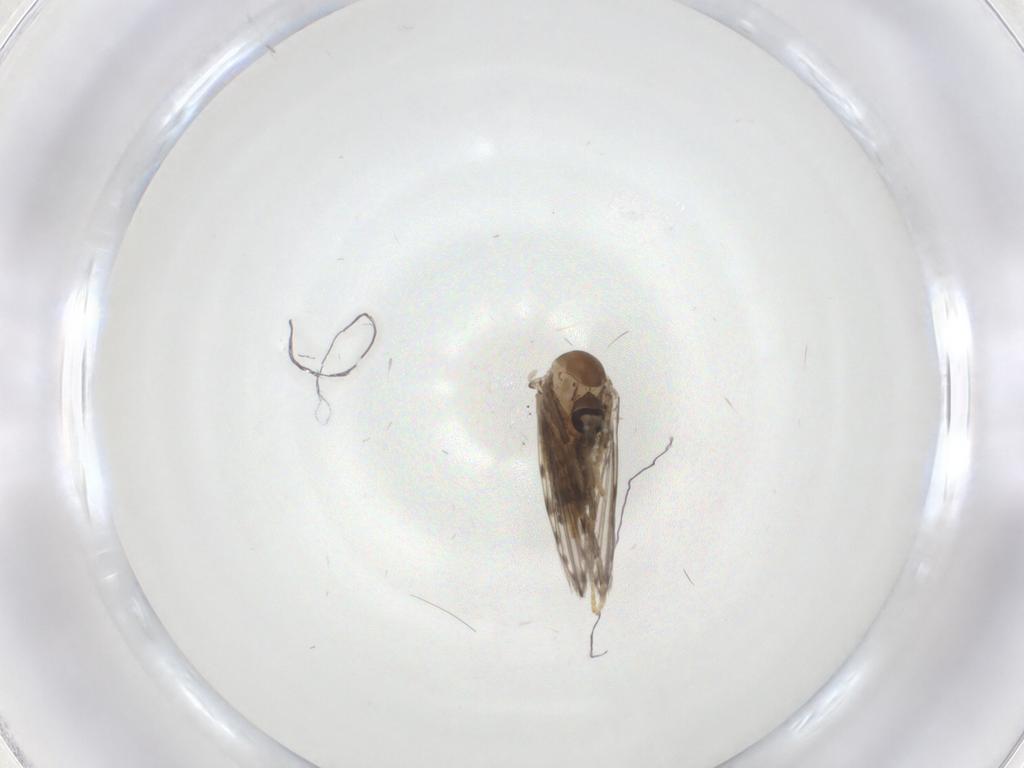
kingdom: Animalia
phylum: Arthropoda
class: Insecta
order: Diptera
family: Chironomidae
